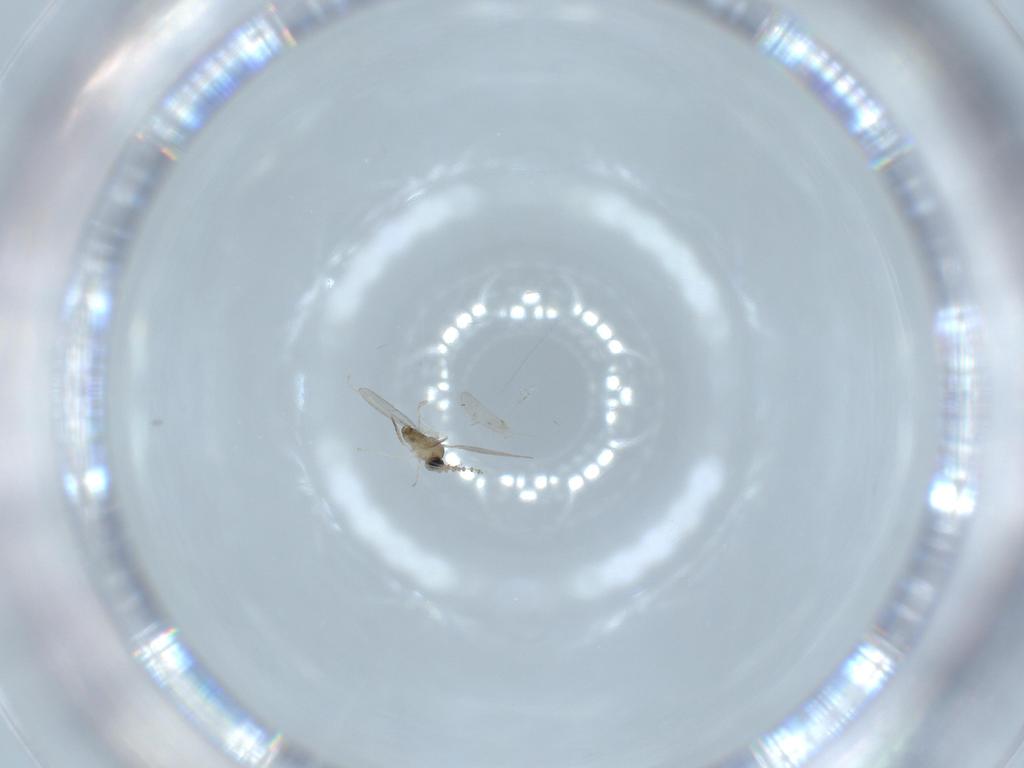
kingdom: Animalia
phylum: Arthropoda
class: Insecta
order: Diptera
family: Cecidomyiidae
